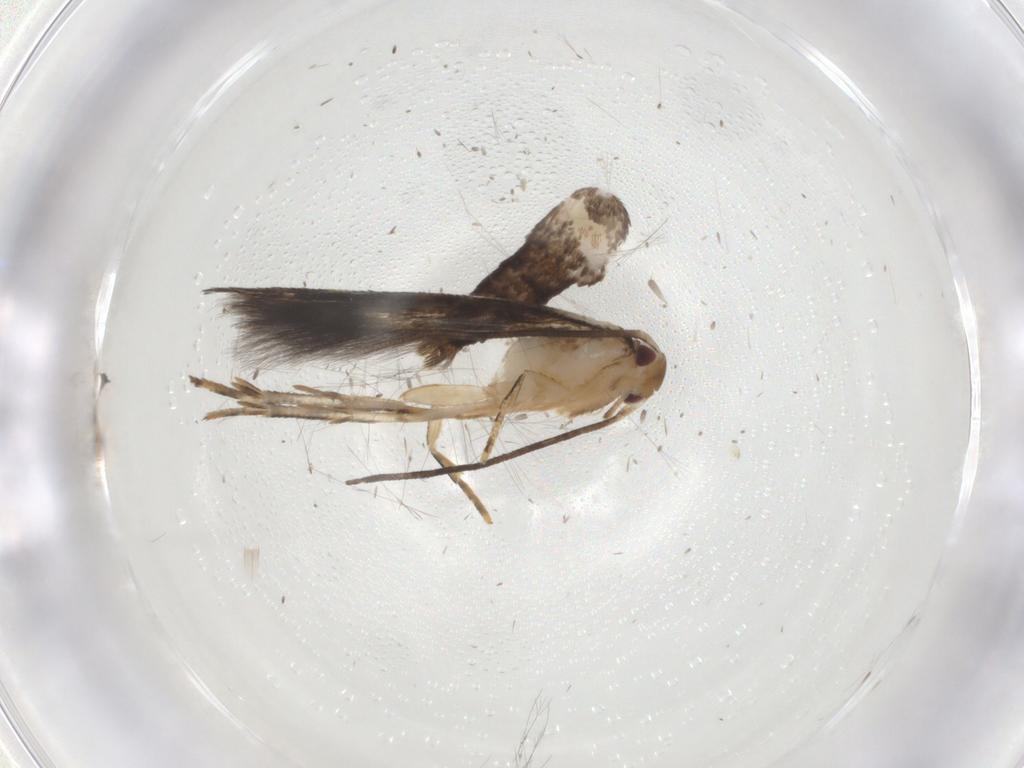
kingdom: Animalia
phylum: Arthropoda
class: Insecta
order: Lepidoptera
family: Momphidae
